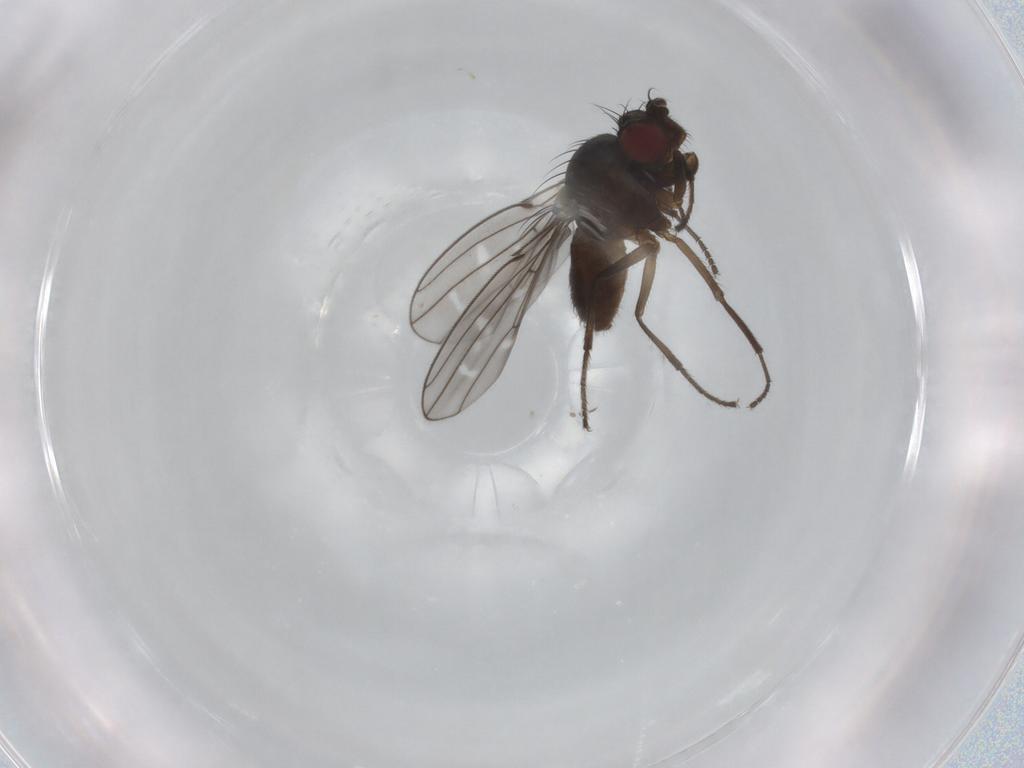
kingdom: Animalia
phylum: Arthropoda
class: Insecta
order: Diptera
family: Ephydridae
